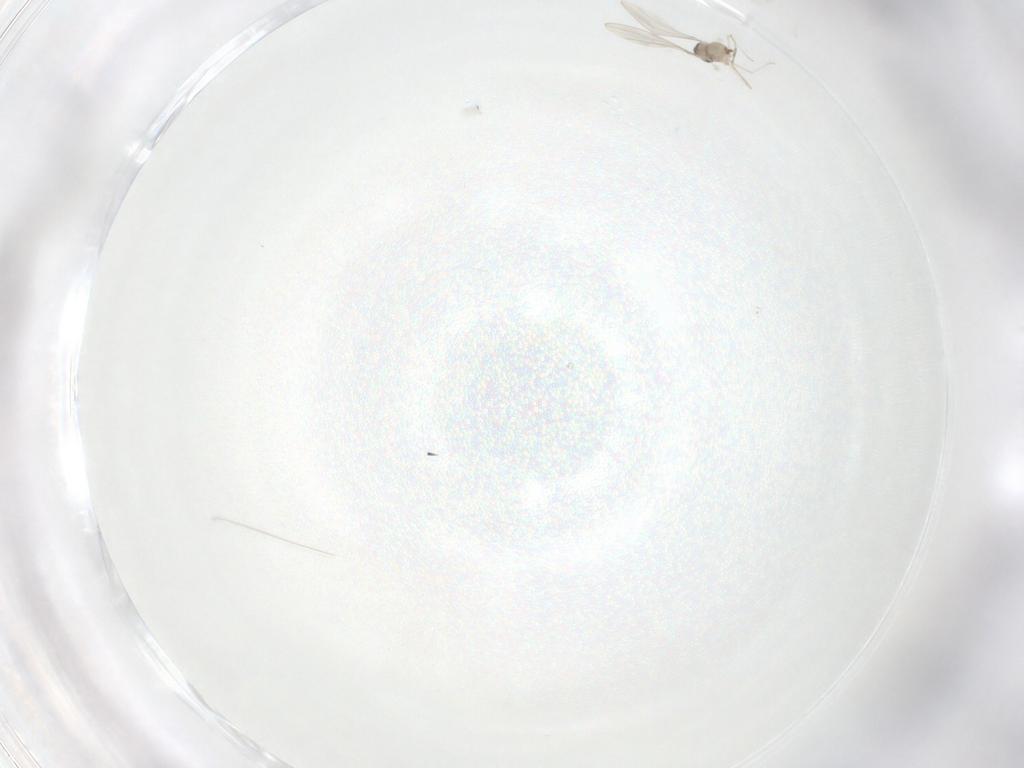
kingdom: Animalia
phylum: Arthropoda
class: Insecta
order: Diptera
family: Cecidomyiidae
